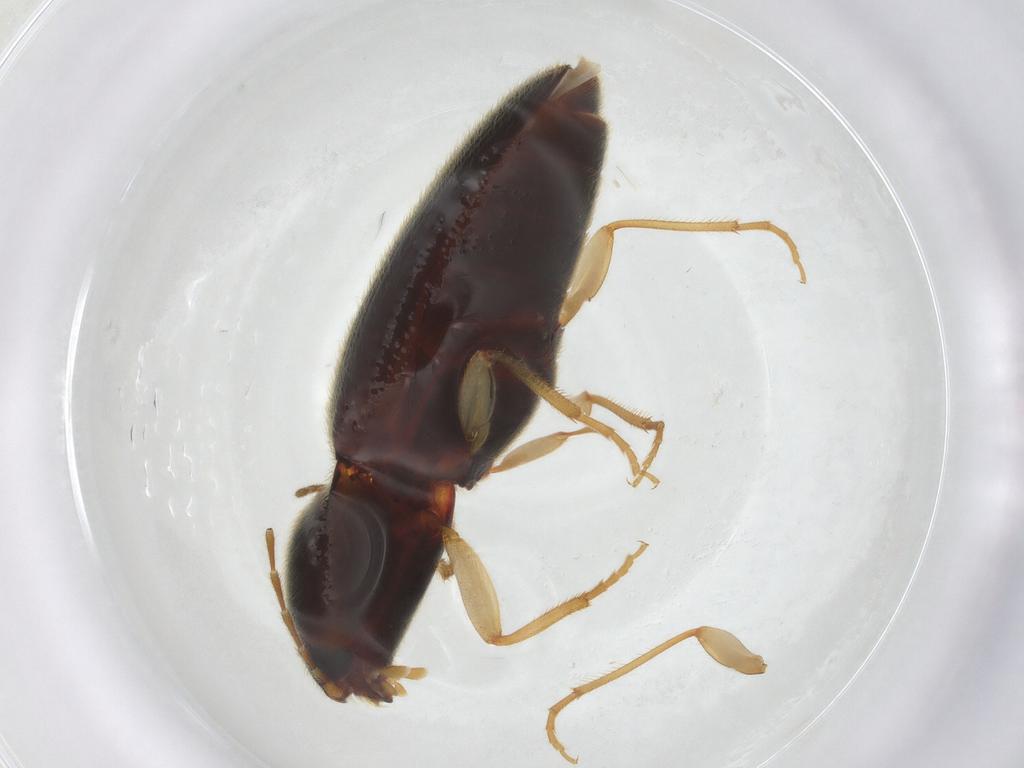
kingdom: Animalia
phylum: Arthropoda
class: Insecta
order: Coleoptera
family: Elateridae
